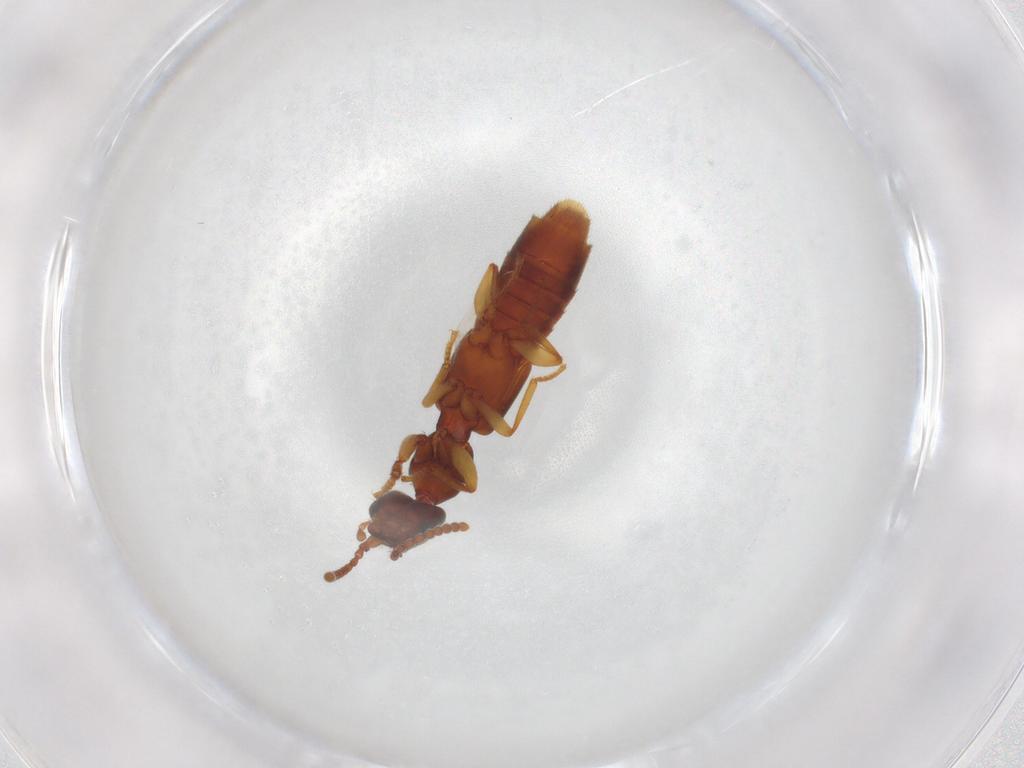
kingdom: Animalia
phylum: Arthropoda
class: Insecta
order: Coleoptera
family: Staphylinidae
